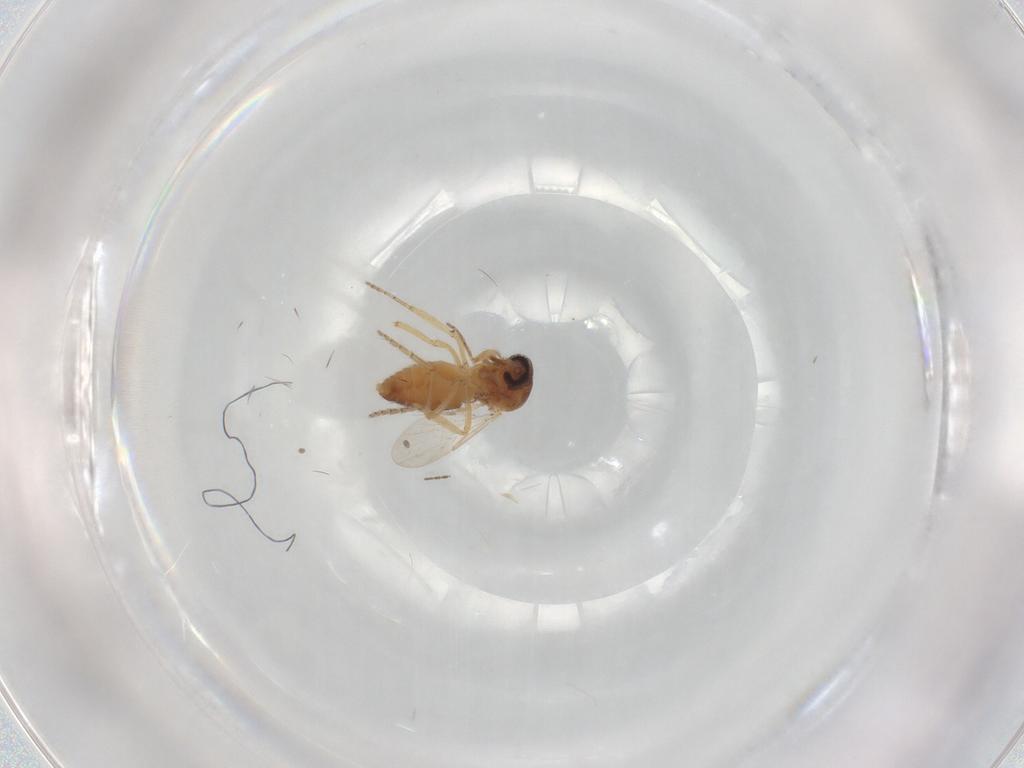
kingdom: Animalia
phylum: Arthropoda
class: Insecta
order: Diptera
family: Ceratopogonidae
